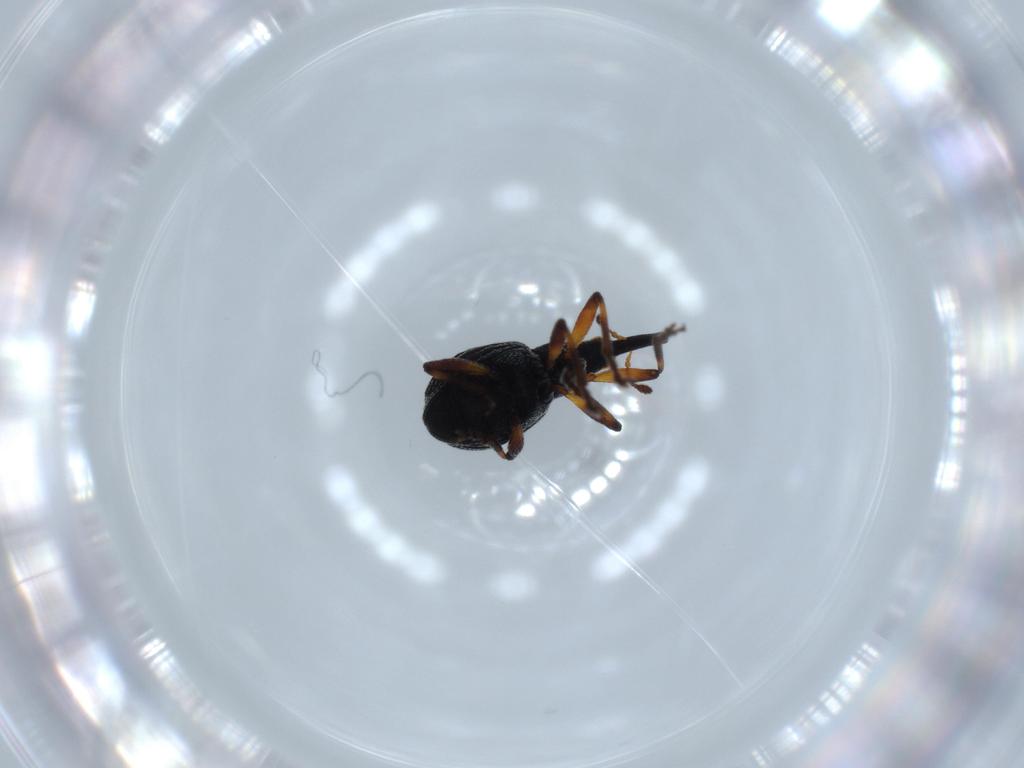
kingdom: Animalia
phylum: Arthropoda
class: Insecta
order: Coleoptera
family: Brentidae
